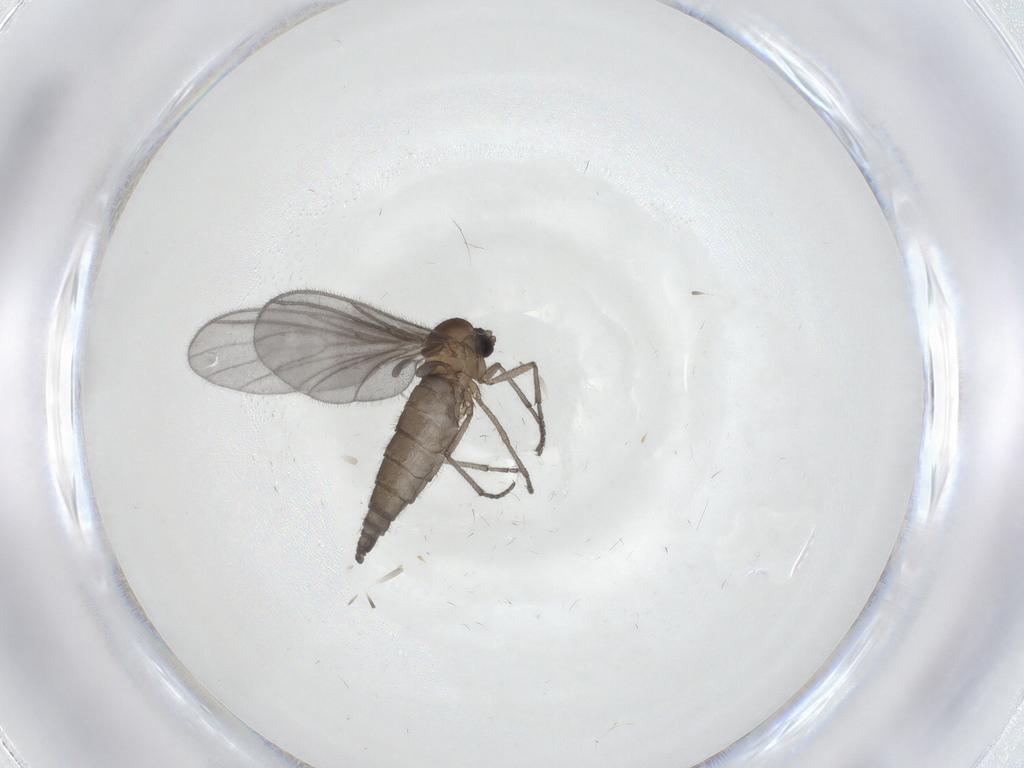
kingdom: Animalia
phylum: Arthropoda
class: Insecta
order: Diptera
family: Sciaridae
